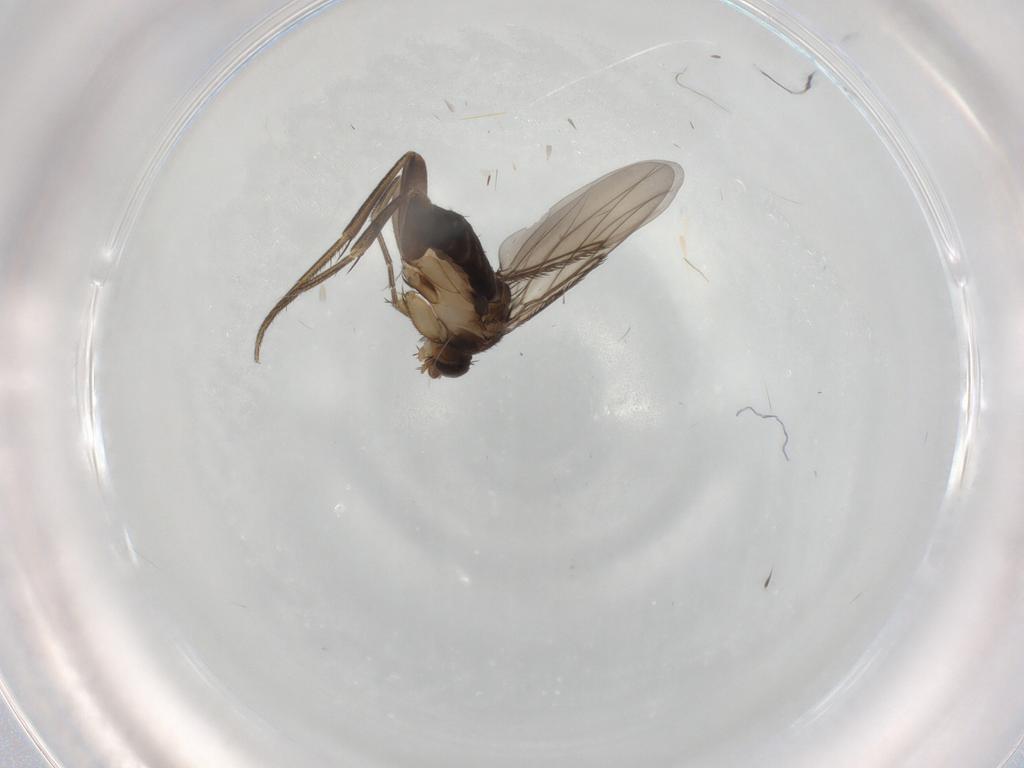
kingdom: Animalia
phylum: Arthropoda
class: Insecta
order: Diptera
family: Phoridae
